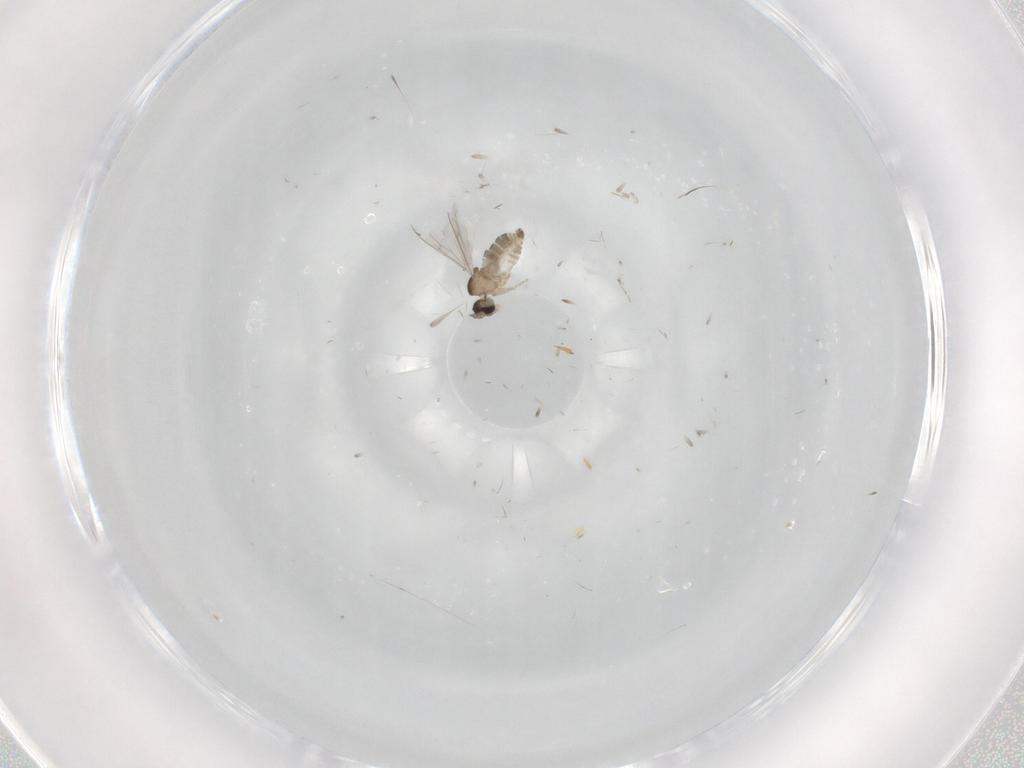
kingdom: Animalia
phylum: Arthropoda
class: Insecta
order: Diptera
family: Cecidomyiidae
